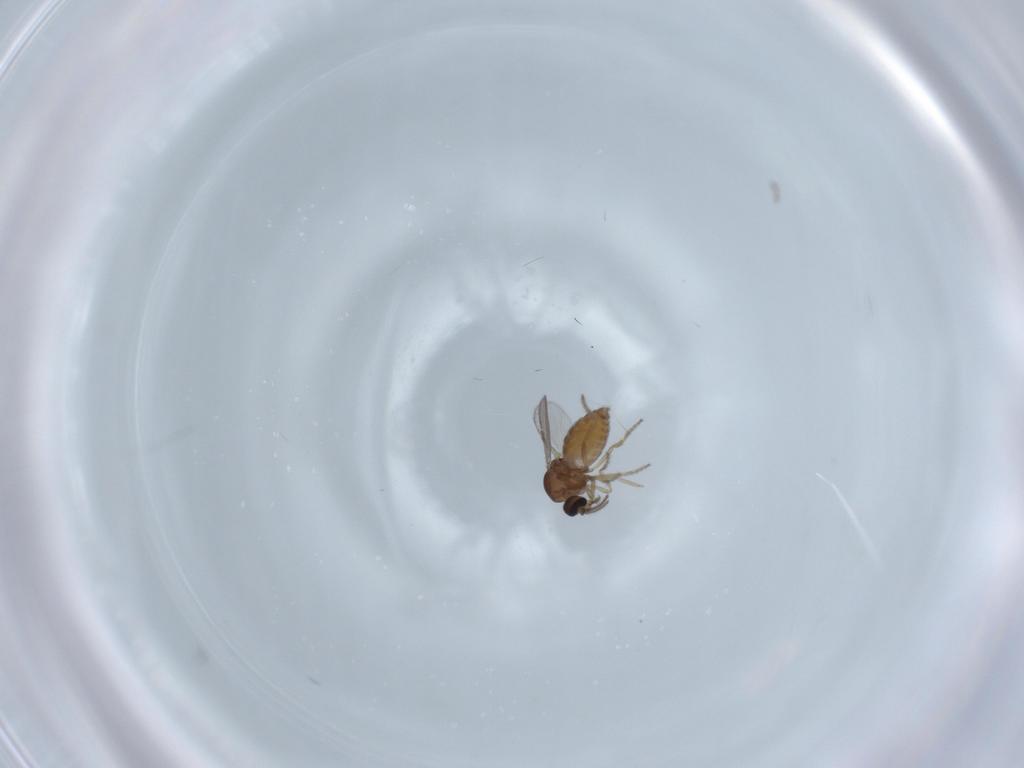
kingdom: Animalia
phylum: Arthropoda
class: Insecta
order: Diptera
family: Ceratopogonidae
